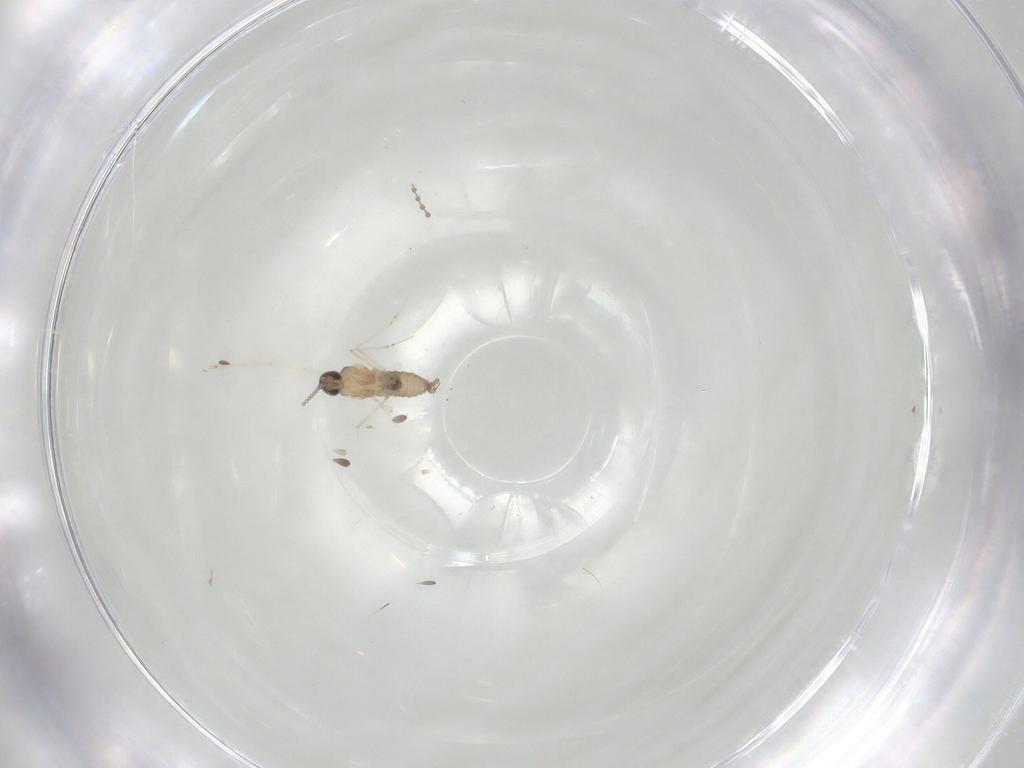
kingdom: Animalia
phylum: Arthropoda
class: Insecta
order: Diptera
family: Cecidomyiidae
